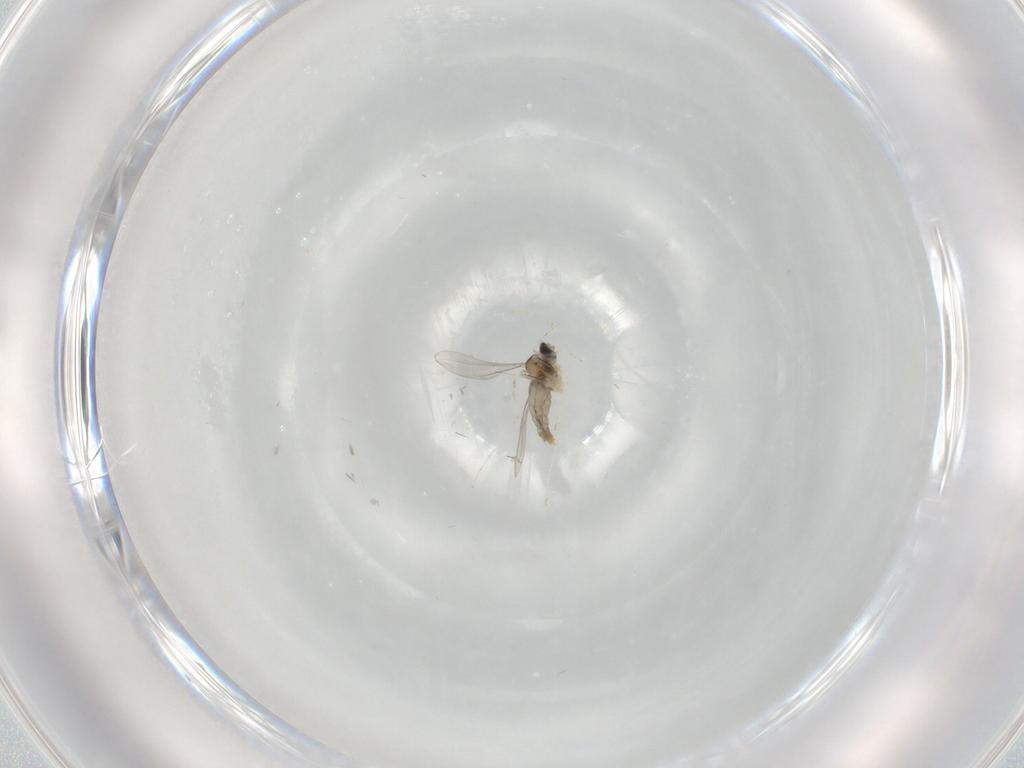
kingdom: Animalia
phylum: Arthropoda
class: Insecta
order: Diptera
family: Cecidomyiidae
